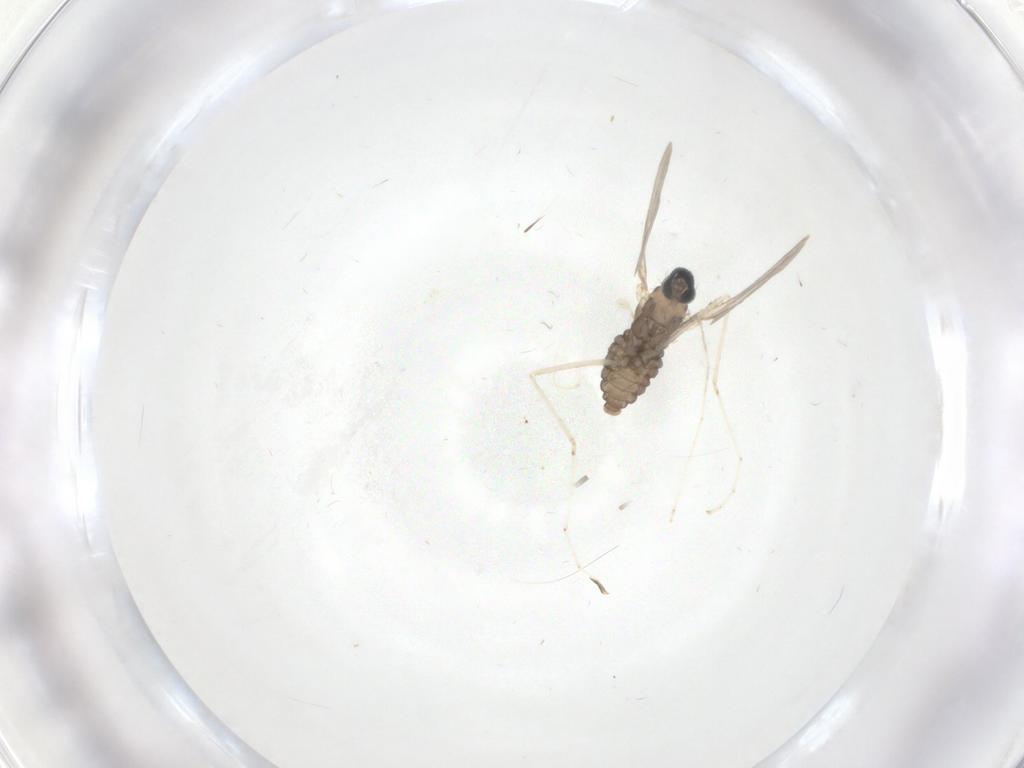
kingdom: Animalia
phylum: Arthropoda
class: Insecta
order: Diptera
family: Cecidomyiidae
